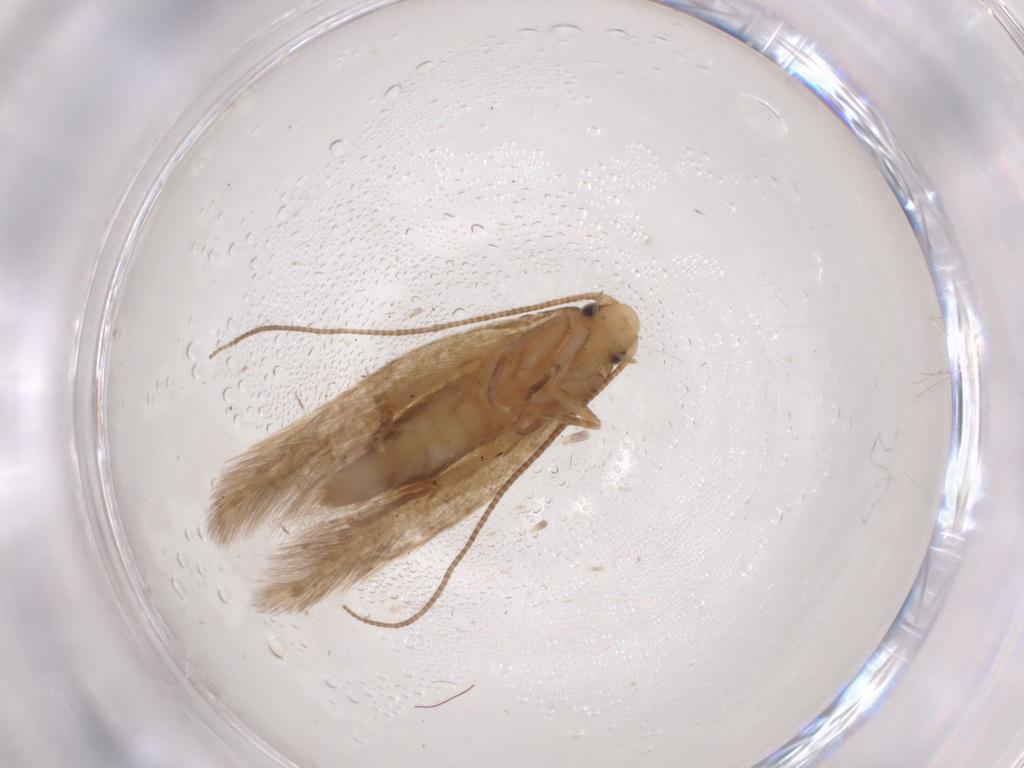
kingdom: Animalia
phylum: Arthropoda
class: Insecta
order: Lepidoptera
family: Tineidae
